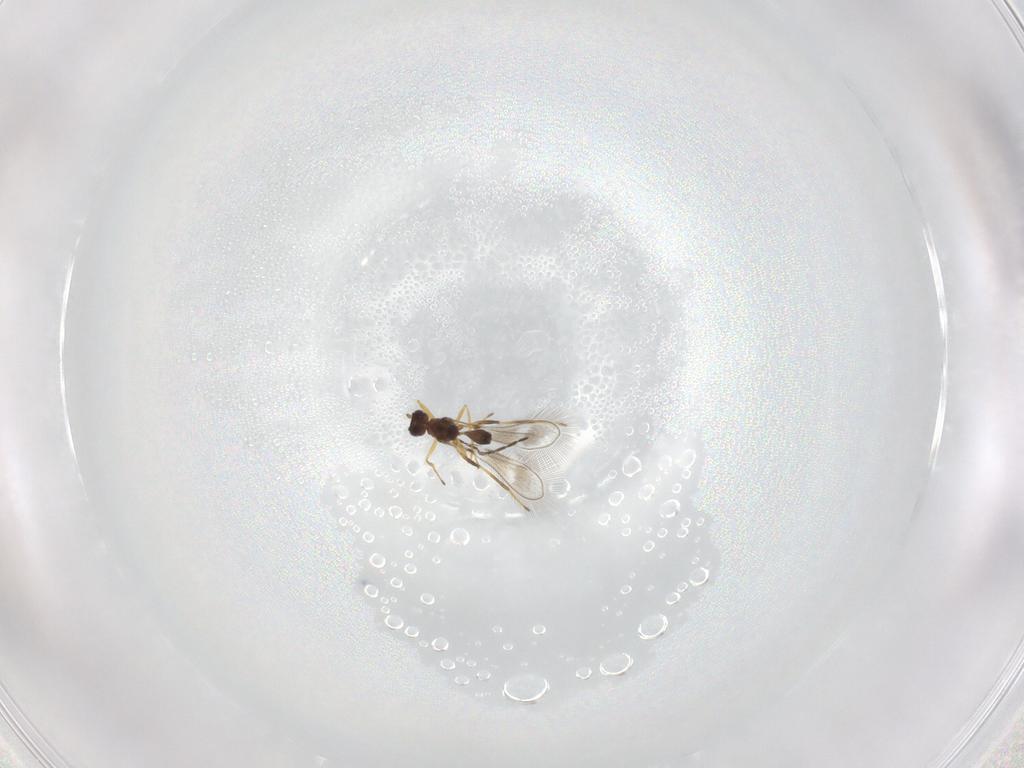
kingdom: Animalia
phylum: Arthropoda
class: Insecta
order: Hymenoptera
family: Mymaridae
